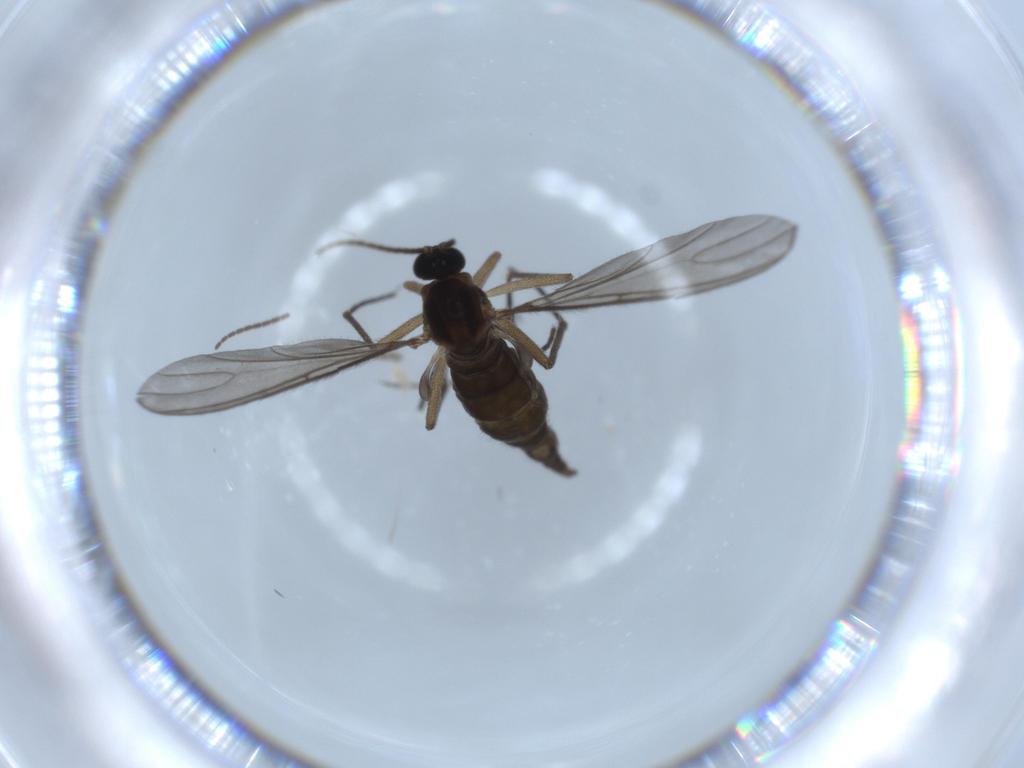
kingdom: Animalia
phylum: Arthropoda
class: Insecta
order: Diptera
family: Sciaridae
